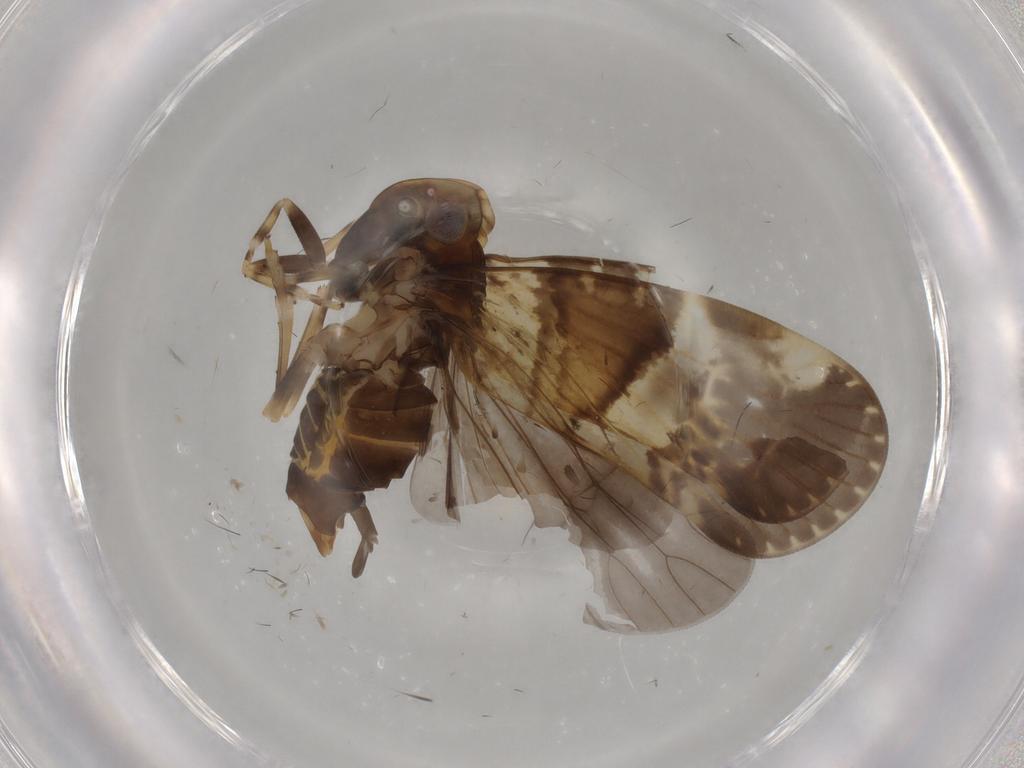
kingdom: Animalia
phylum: Arthropoda
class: Insecta
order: Hemiptera
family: Cixiidae
